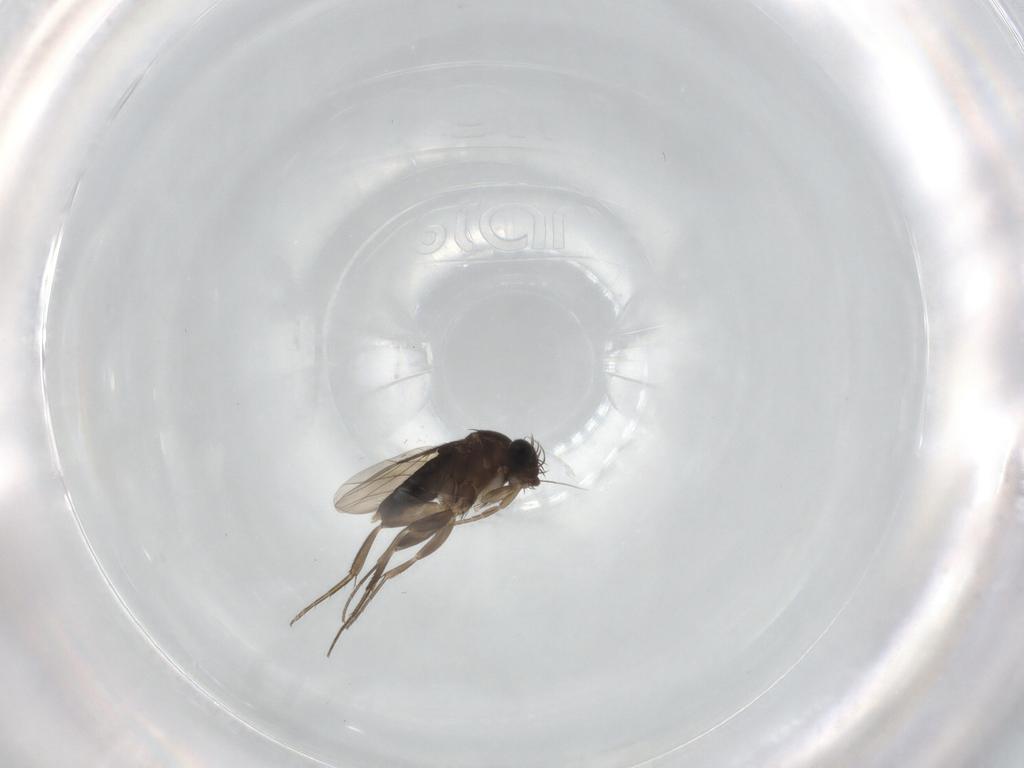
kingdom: Animalia
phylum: Arthropoda
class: Insecta
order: Diptera
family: Phoridae
